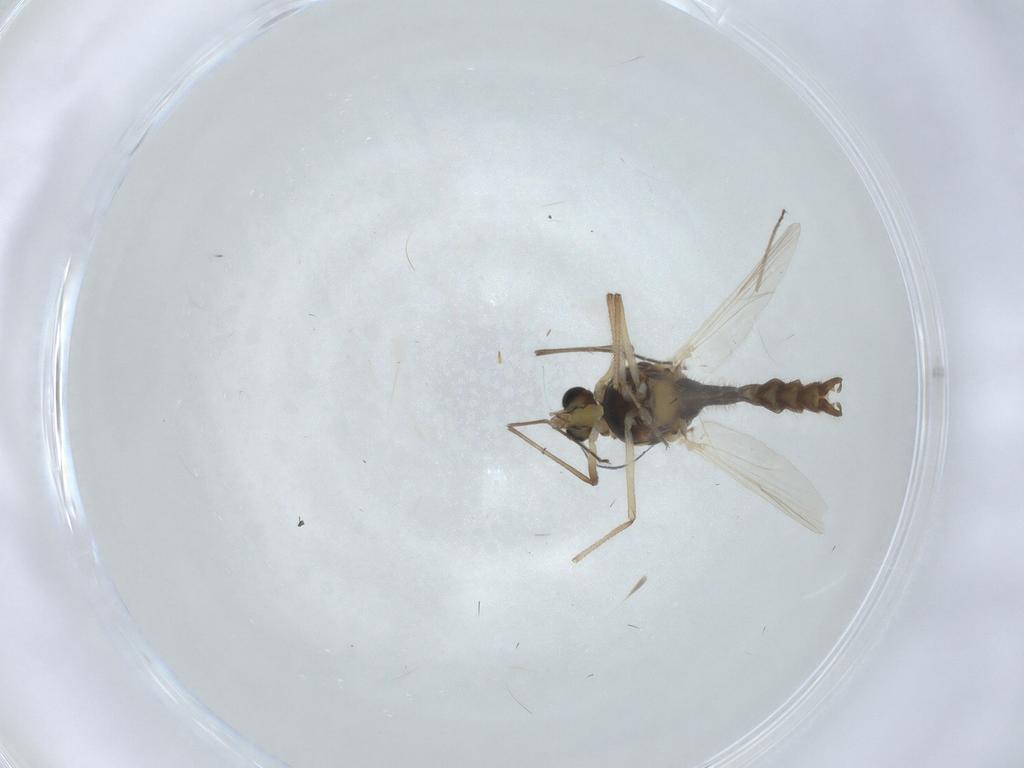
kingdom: Animalia
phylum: Arthropoda
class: Insecta
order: Diptera
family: Chironomidae
